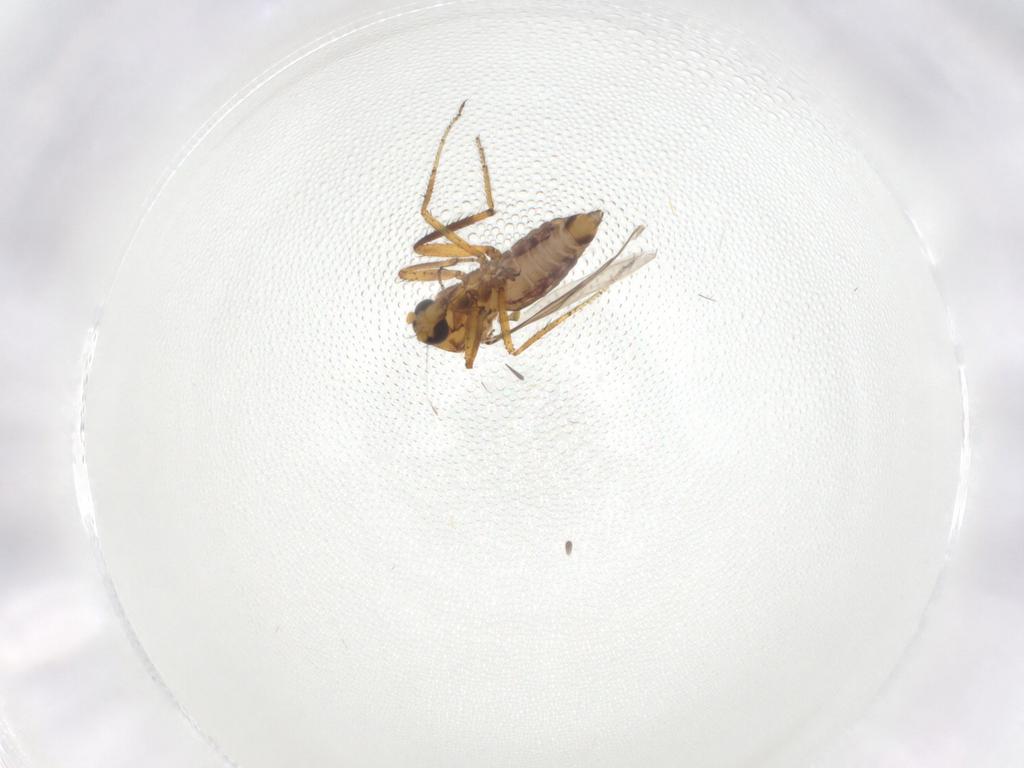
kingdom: Animalia
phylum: Arthropoda
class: Insecta
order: Diptera
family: Ceratopogonidae
